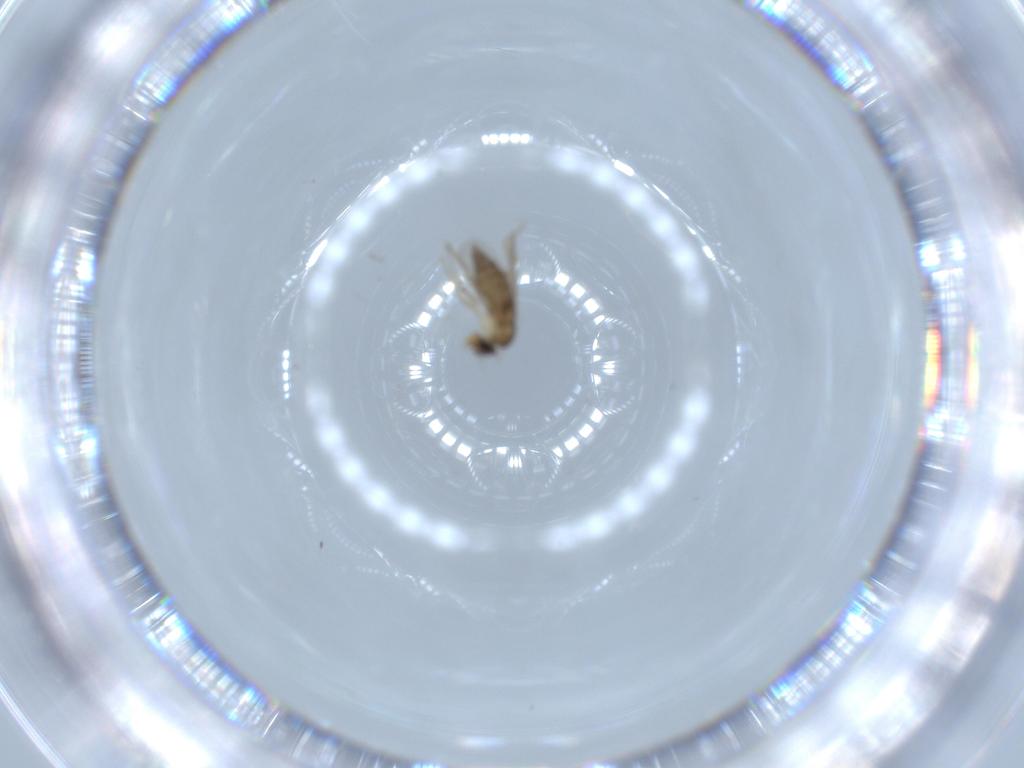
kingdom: Animalia
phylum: Arthropoda
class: Insecta
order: Diptera
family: Phoridae
